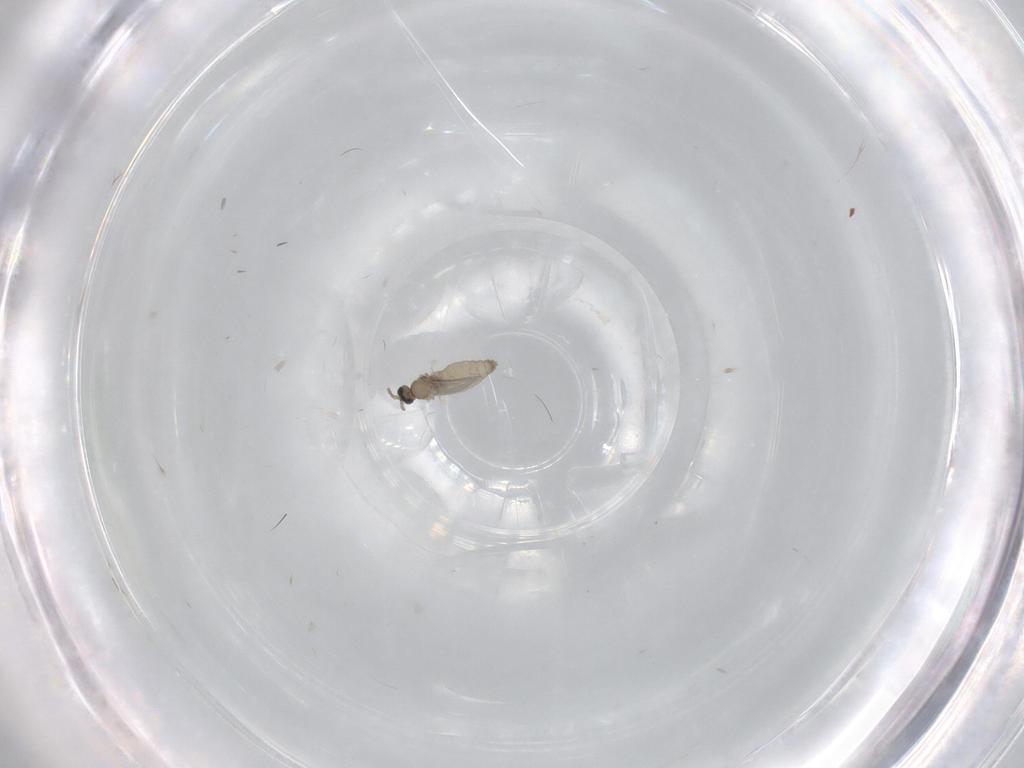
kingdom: Animalia
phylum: Arthropoda
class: Insecta
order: Diptera
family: Cecidomyiidae
